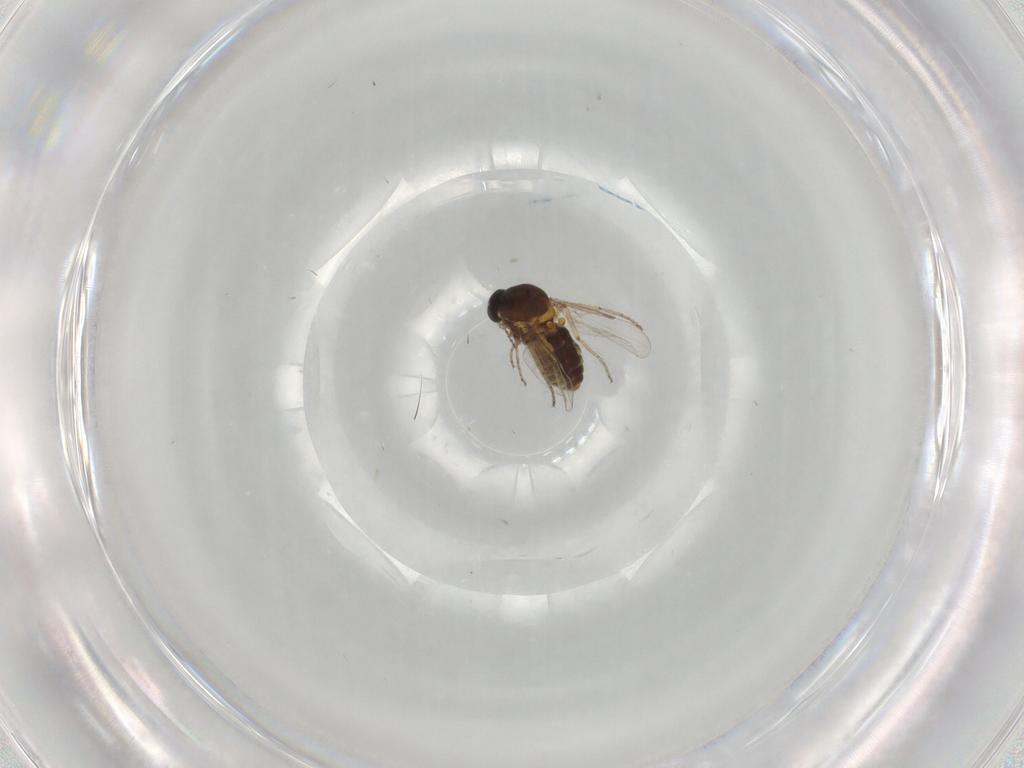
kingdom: Animalia
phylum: Arthropoda
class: Insecta
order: Diptera
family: Ceratopogonidae
